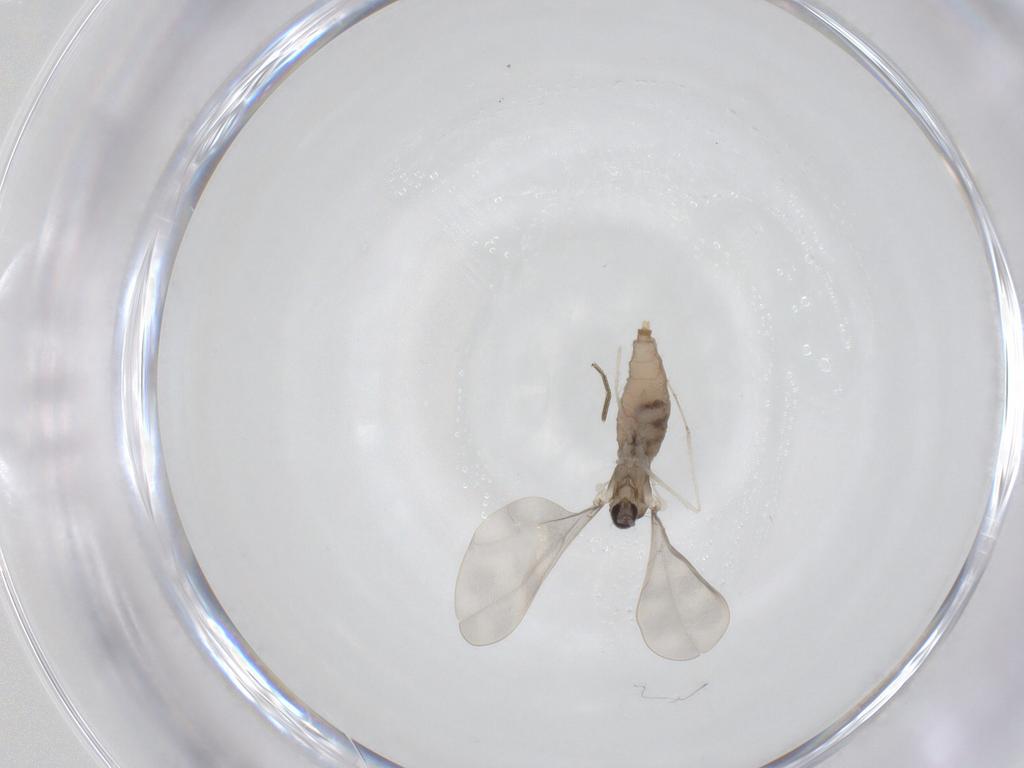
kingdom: Animalia
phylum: Arthropoda
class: Insecta
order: Diptera
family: Cecidomyiidae
